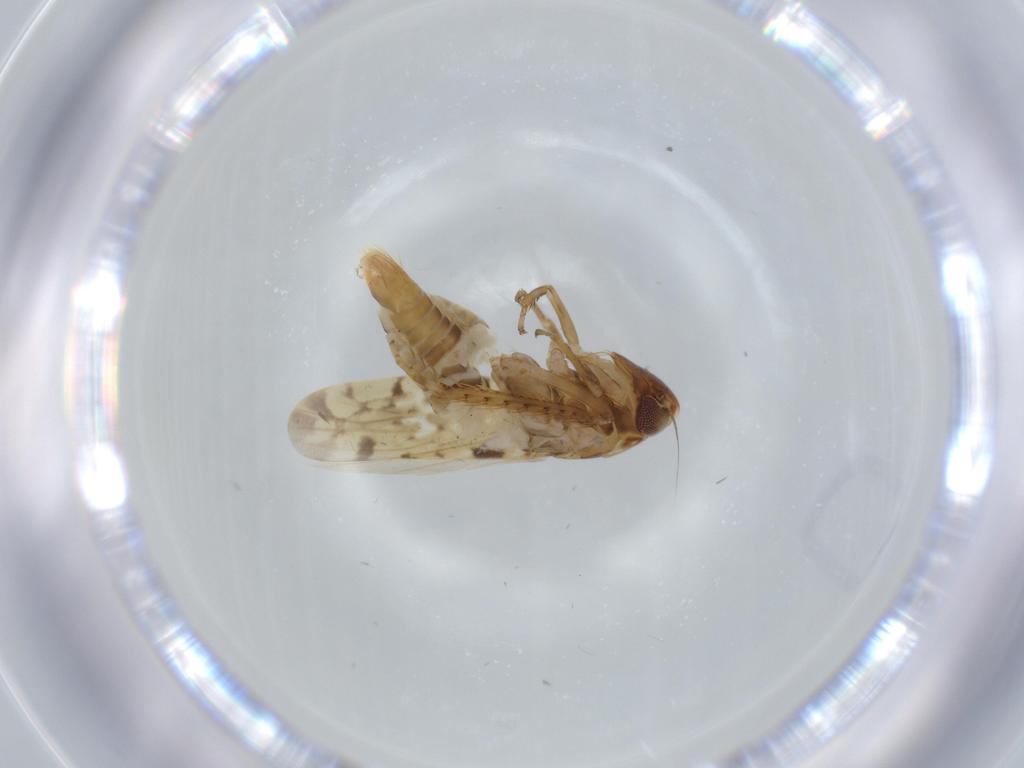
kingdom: Animalia
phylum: Arthropoda
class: Insecta
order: Hemiptera
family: Cicadellidae
